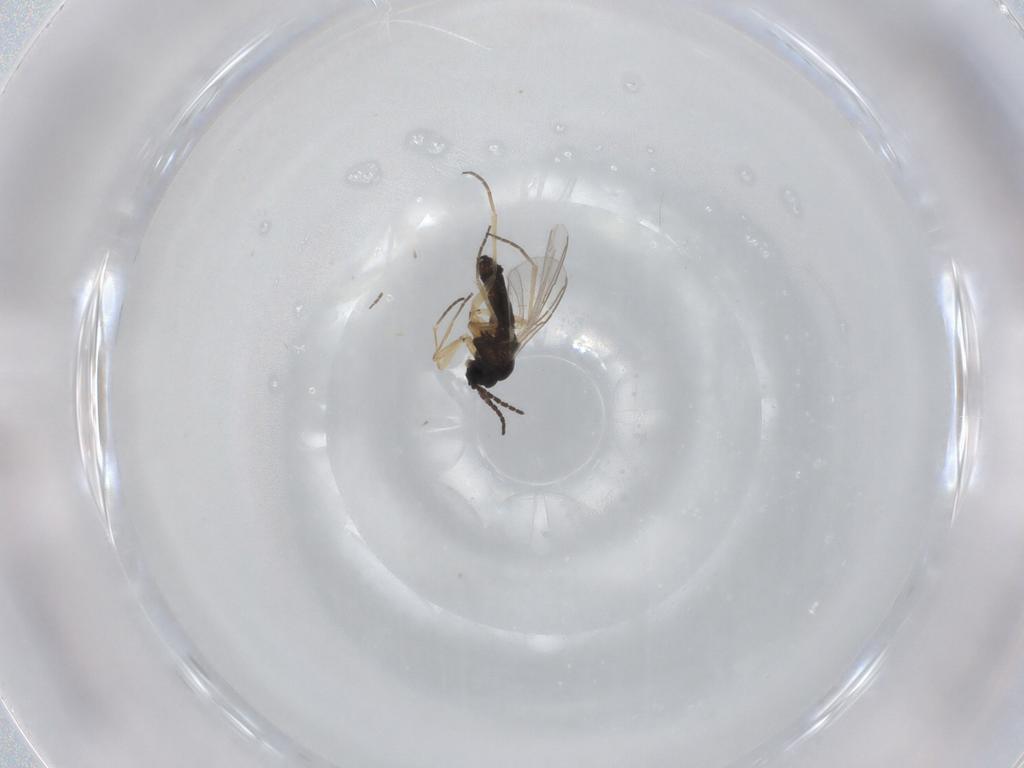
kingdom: Animalia
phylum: Arthropoda
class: Insecta
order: Diptera
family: Sciaridae
